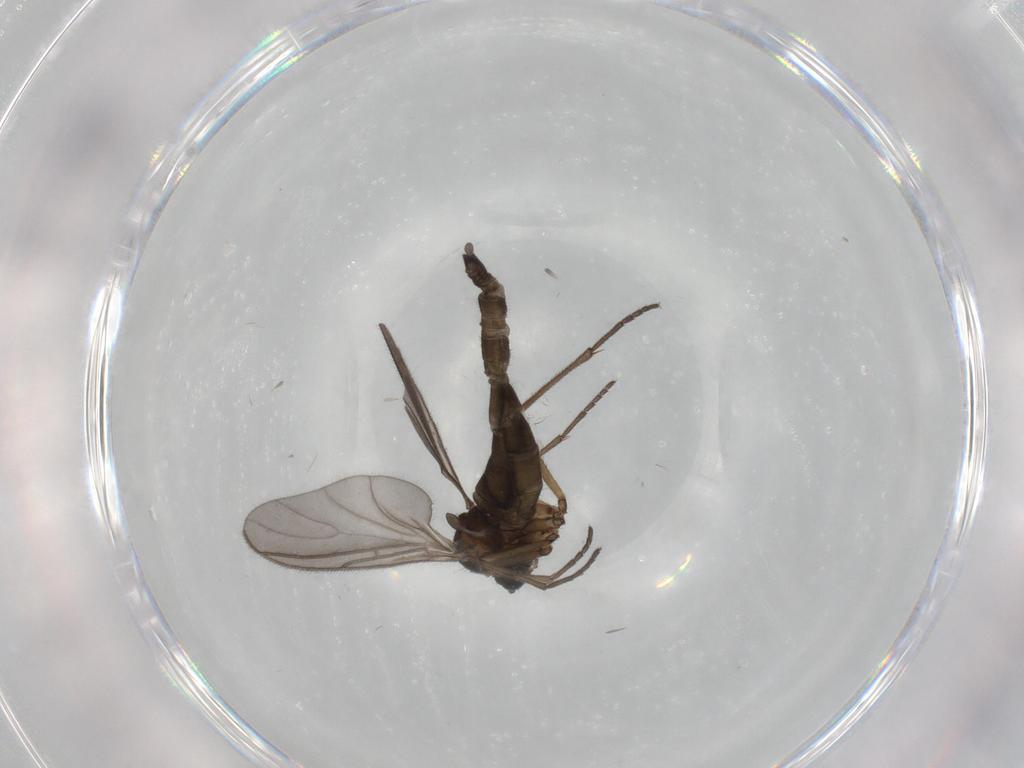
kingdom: Animalia
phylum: Arthropoda
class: Insecta
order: Diptera
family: Sciaridae
